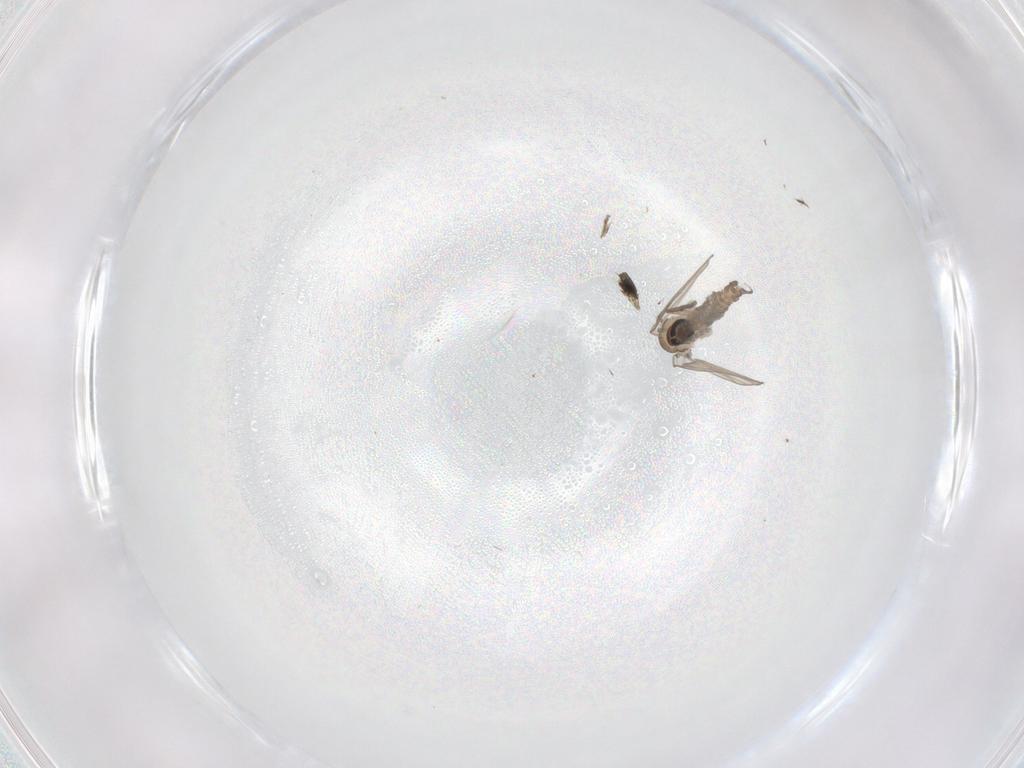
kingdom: Animalia
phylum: Arthropoda
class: Insecta
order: Diptera
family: Psychodidae
